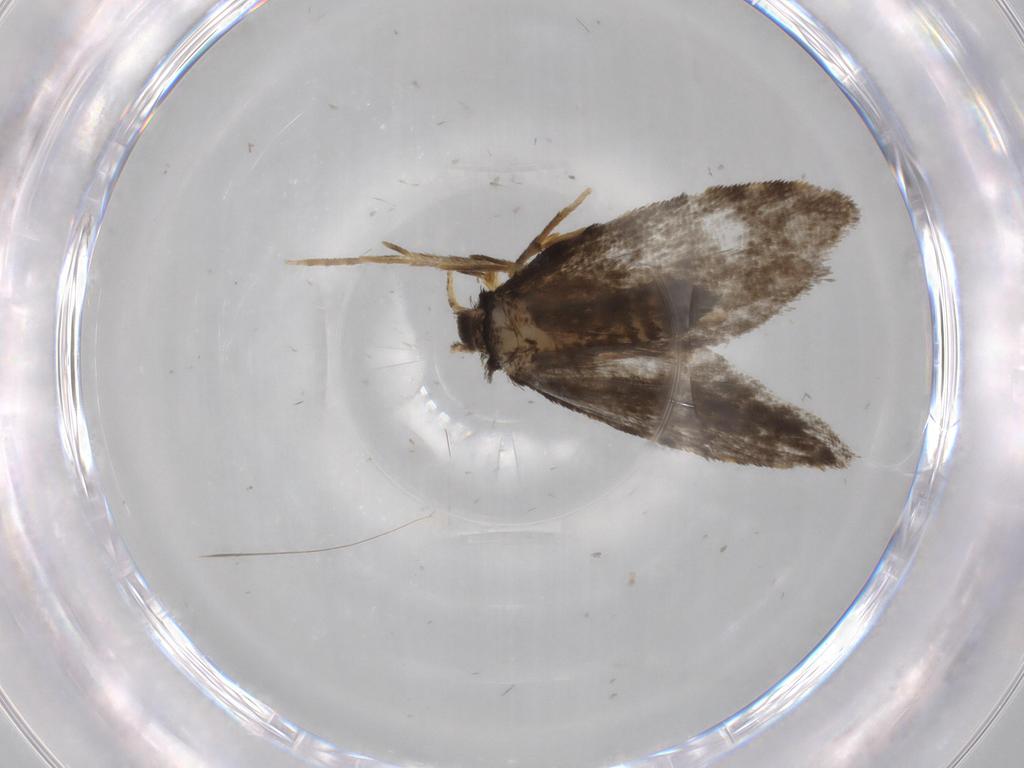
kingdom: Animalia
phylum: Arthropoda
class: Insecta
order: Lepidoptera
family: Psychidae
